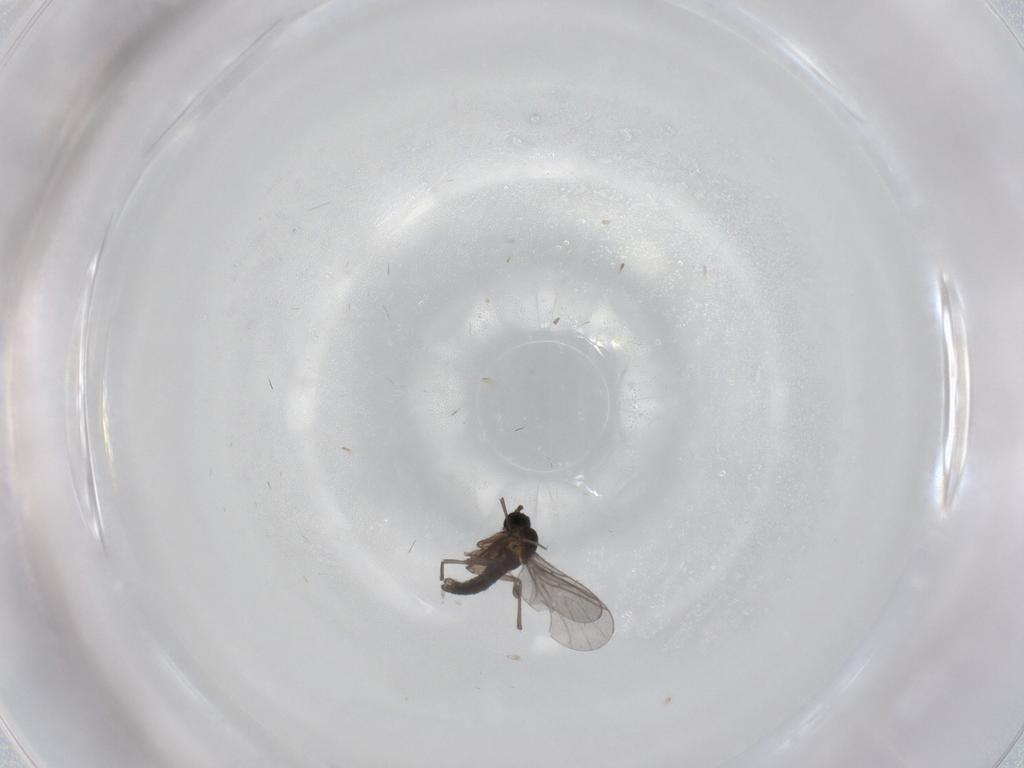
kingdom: Animalia
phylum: Arthropoda
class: Insecta
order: Diptera
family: Chironomidae
